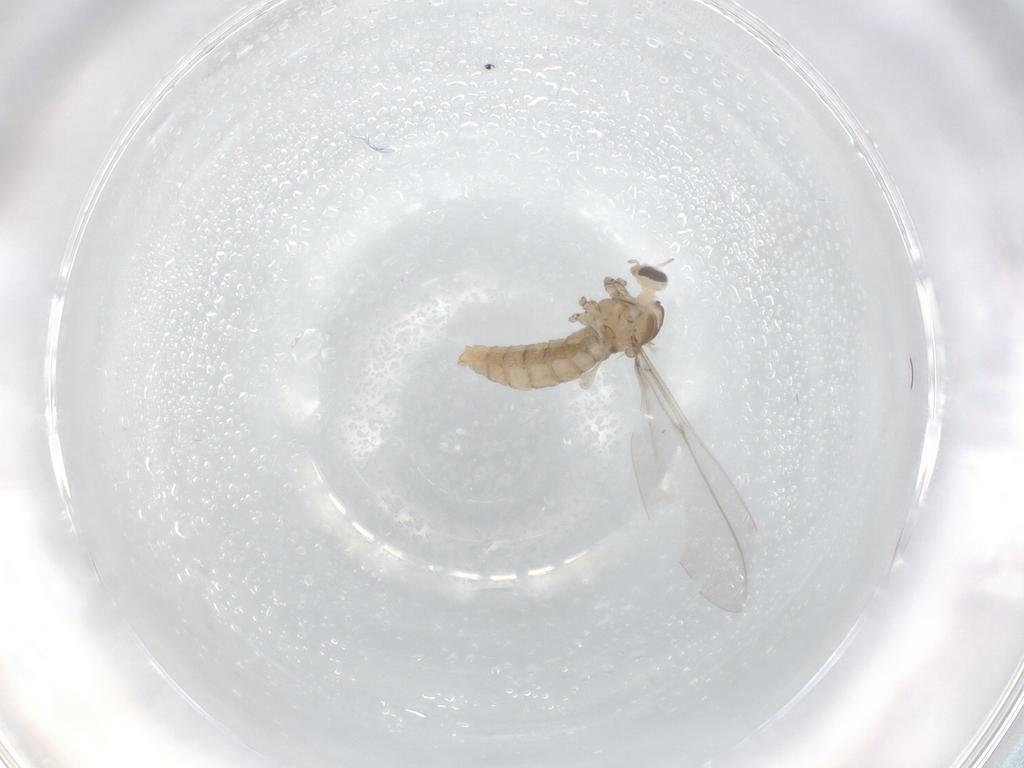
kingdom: Animalia
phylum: Arthropoda
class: Insecta
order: Diptera
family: Cecidomyiidae
